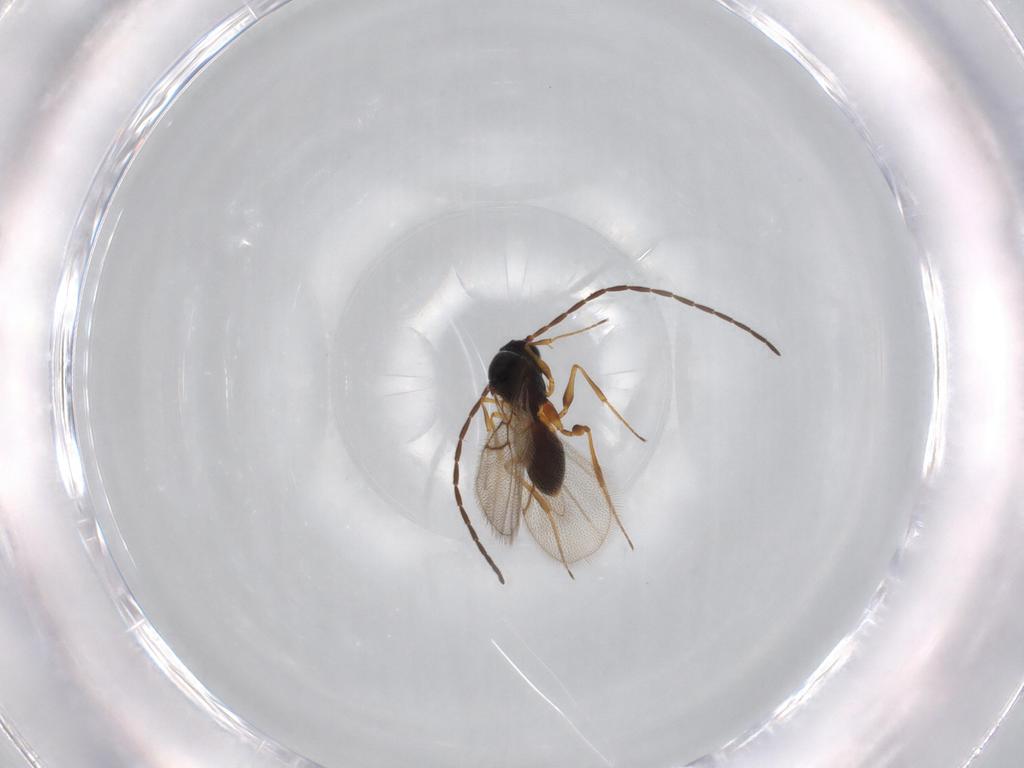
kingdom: Animalia
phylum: Arthropoda
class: Insecta
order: Hymenoptera
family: Figitidae
